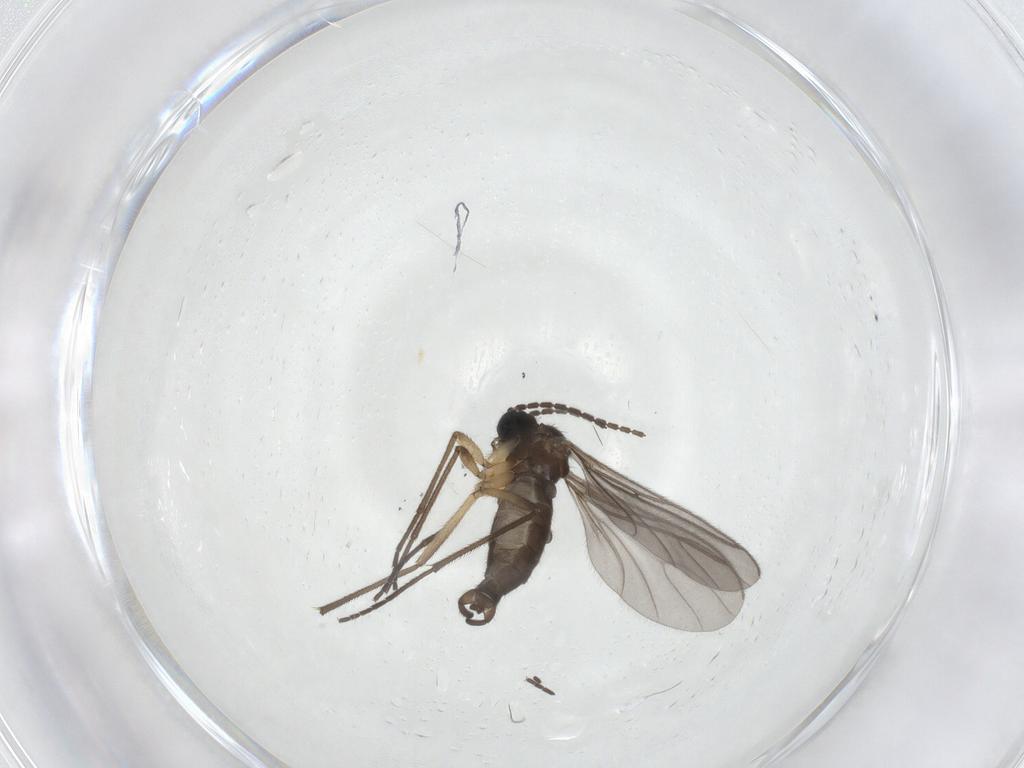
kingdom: Animalia
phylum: Arthropoda
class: Insecta
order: Diptera
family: Sciaridae
